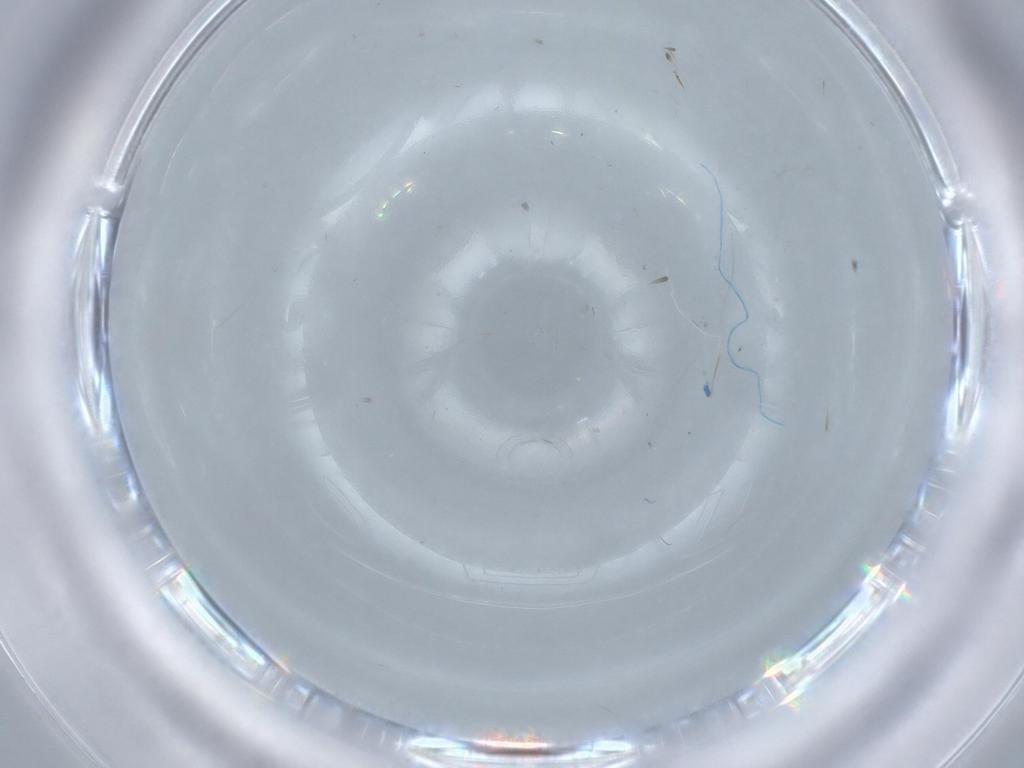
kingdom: Animalia
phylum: Arthropoda
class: Insecta
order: Diptera
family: Cecidomyiidae
